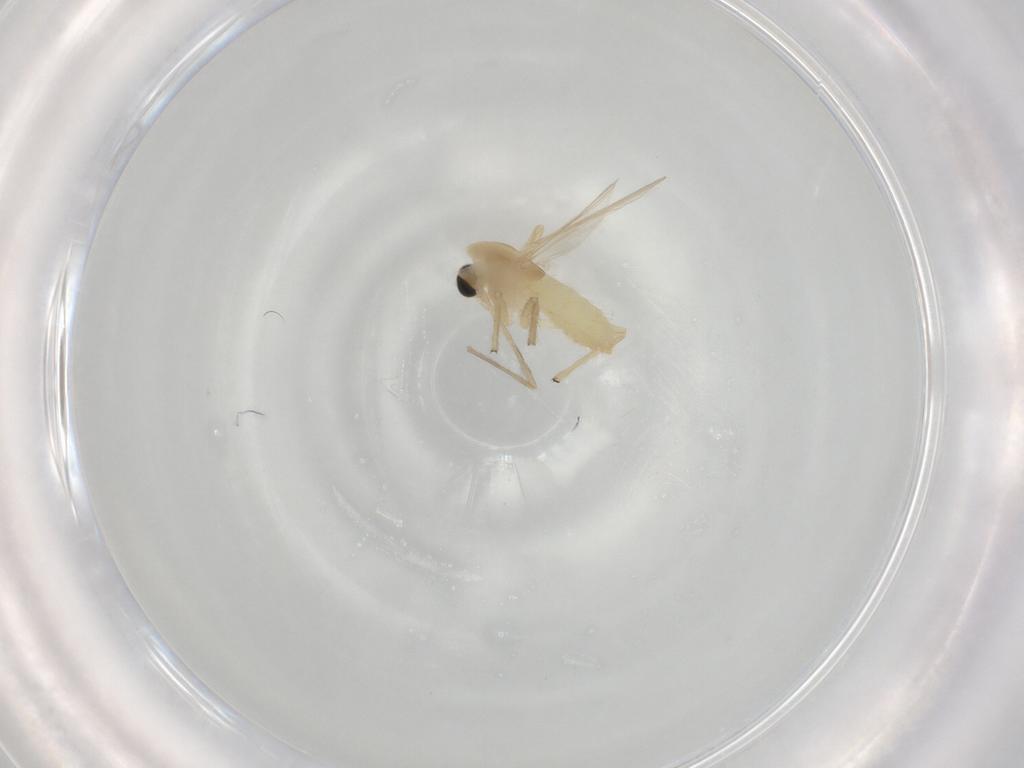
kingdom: Animalia
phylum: Arthropoda
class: Insecta
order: Diptera
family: Chironomidae
